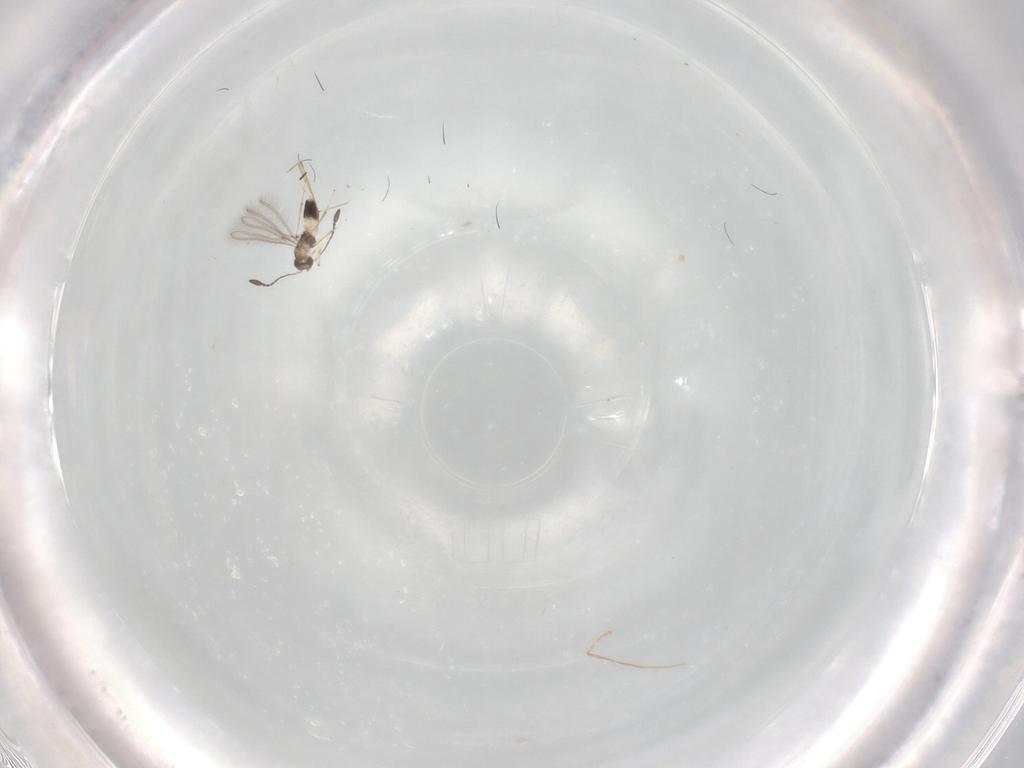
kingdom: Animalia
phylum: Arthropoda
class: Insecta
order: Hymenoptera
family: Mymaridae
